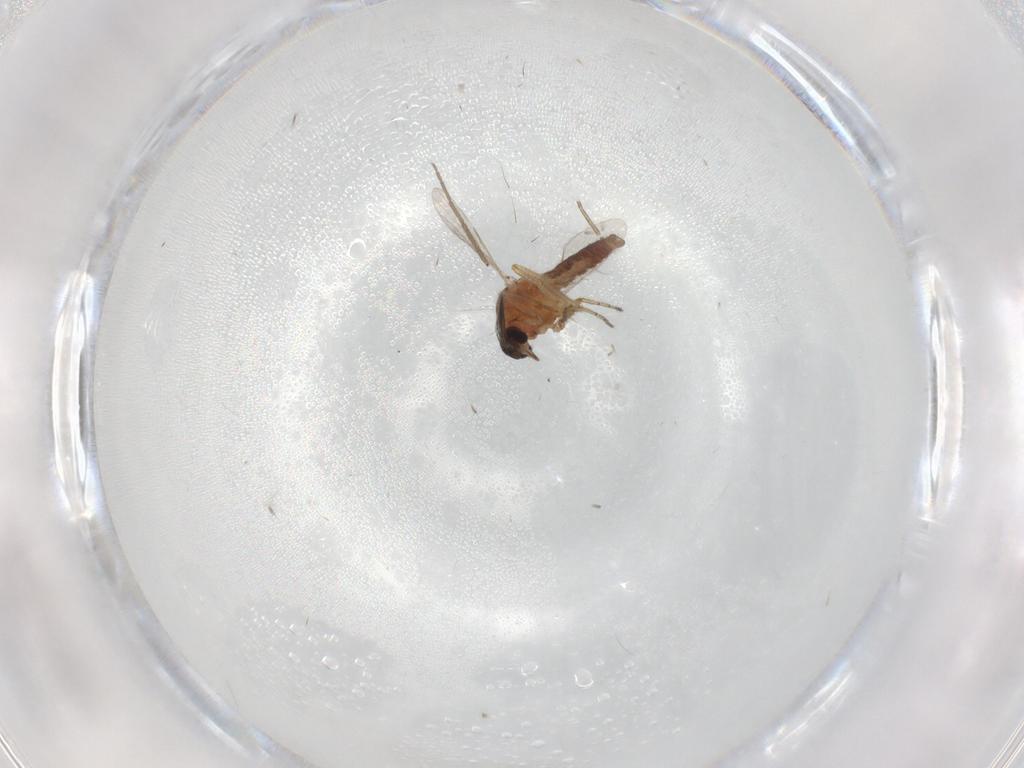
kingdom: Animalia
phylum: Arthropoda
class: Insecta
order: Diptera
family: Ceratopogonidae
